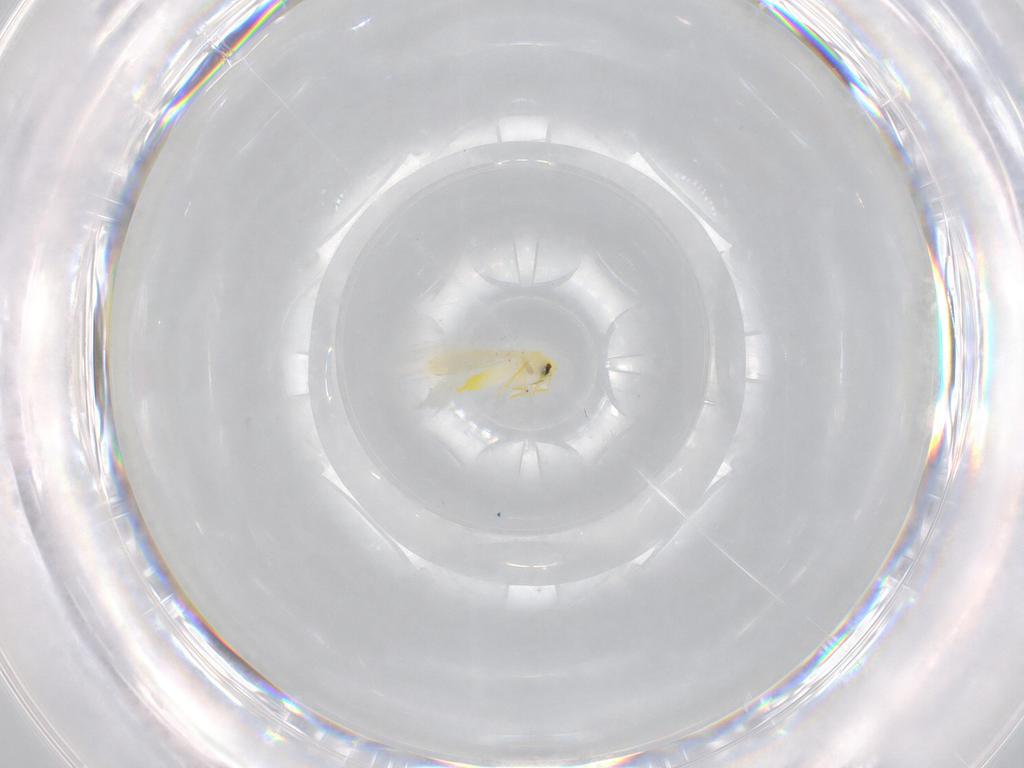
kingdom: Animalia
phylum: Arthropoda
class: Insecta
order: Hemiptera
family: Aleyrodidae
